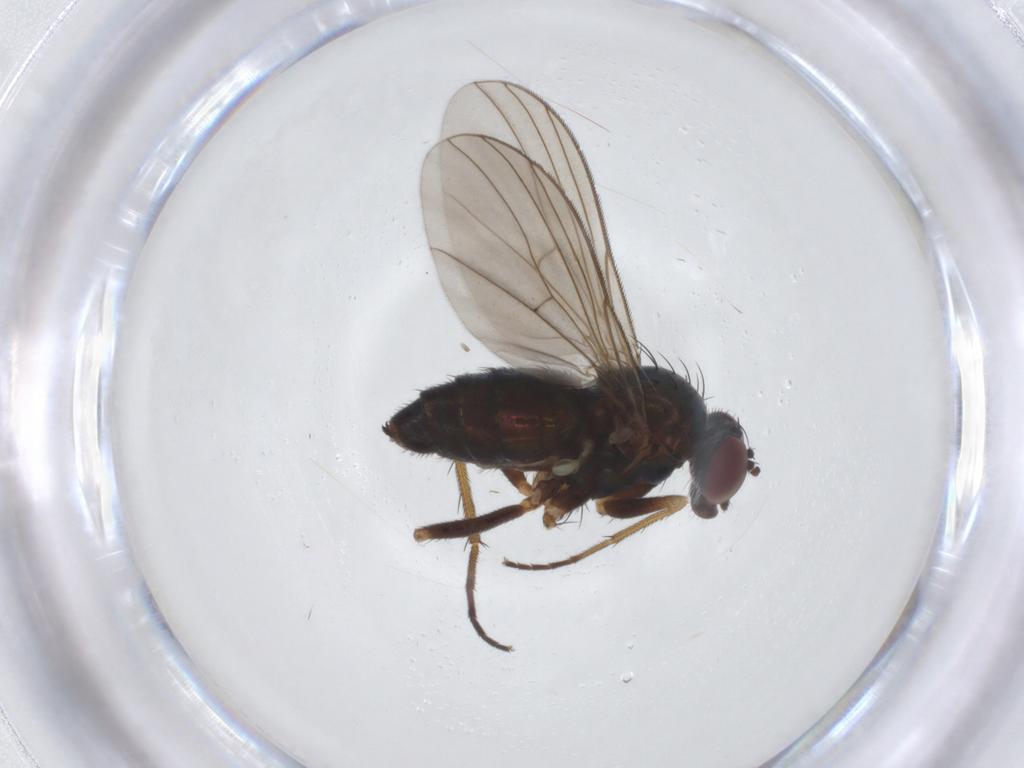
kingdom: Animalia
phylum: Arthropoda
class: Insecta
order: Diptera
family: Dolichopodidae
